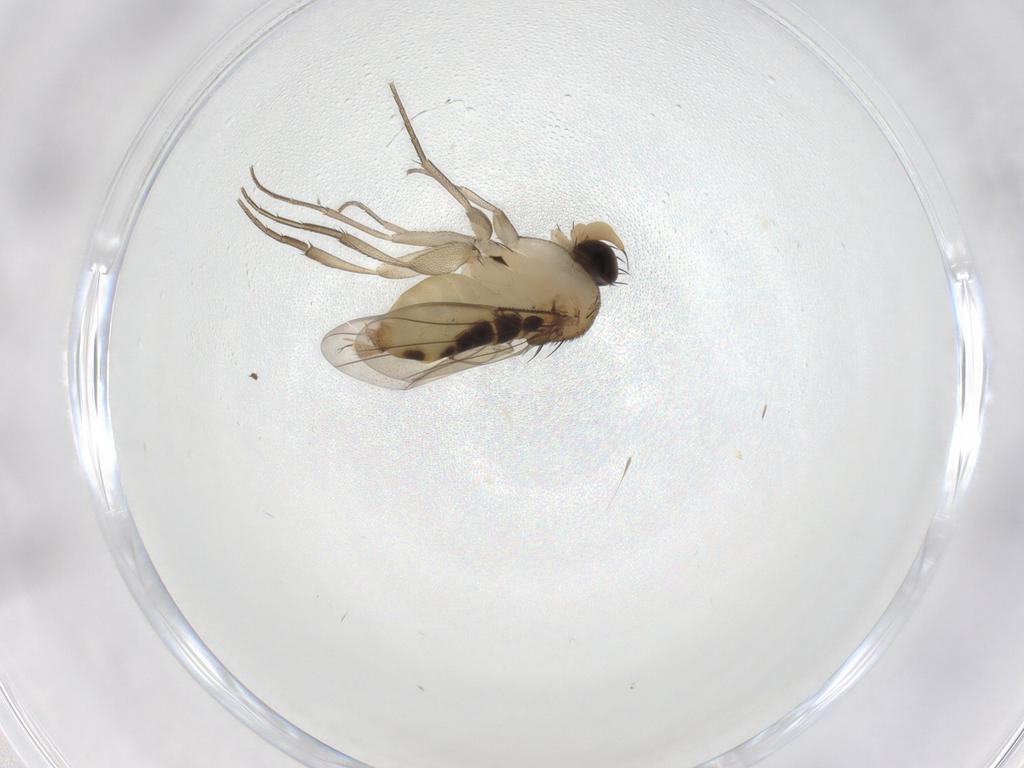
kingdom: Animalia
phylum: Arthropoda
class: Insecta
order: Diptera
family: Phoridae
